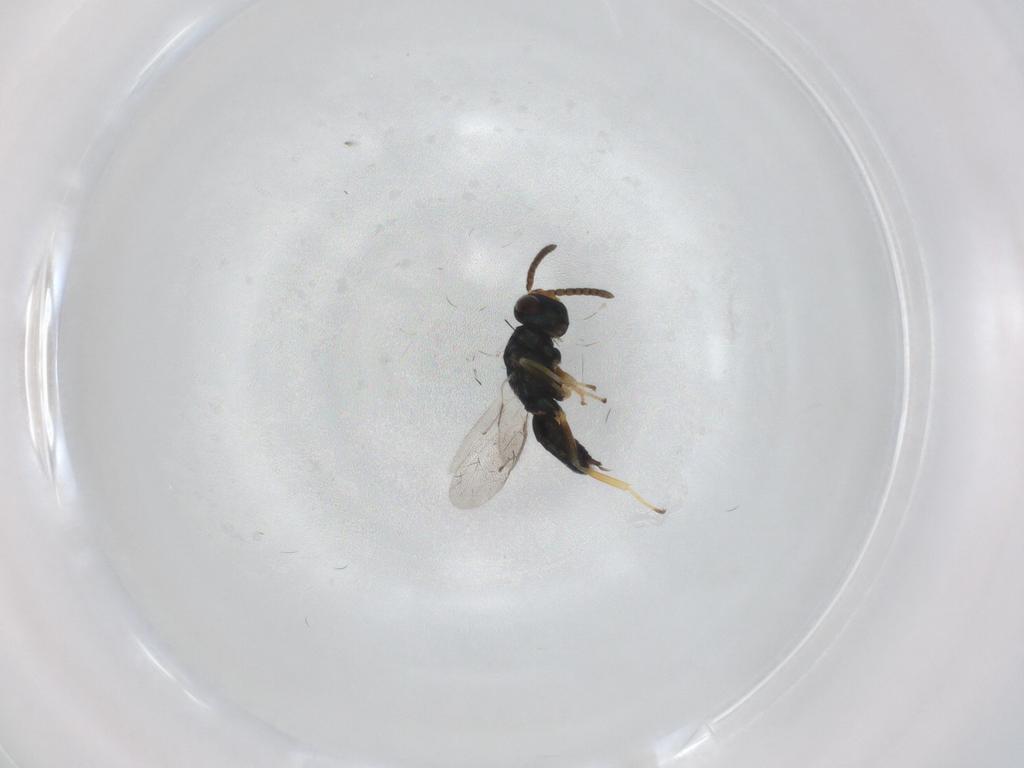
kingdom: Animalia
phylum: Arthropoda
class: Insecta
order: Hymenoptera
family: Pteromalidae
